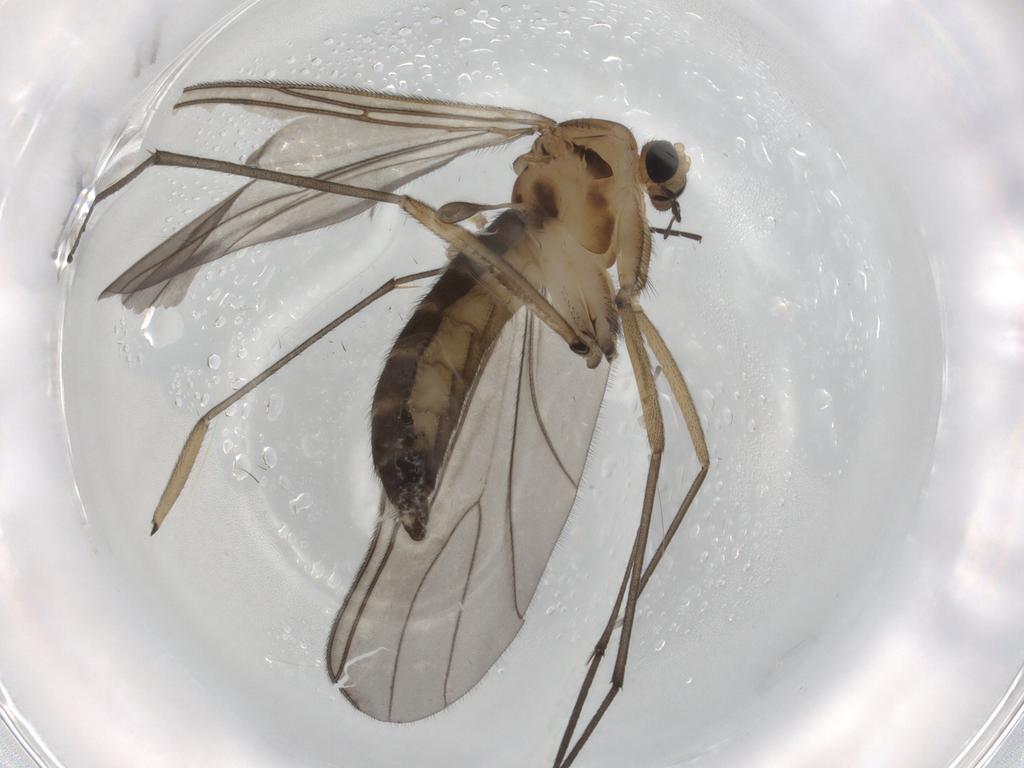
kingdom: Animalia
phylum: Arthropoda
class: Insecta
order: Diptera
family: Sciaridae
